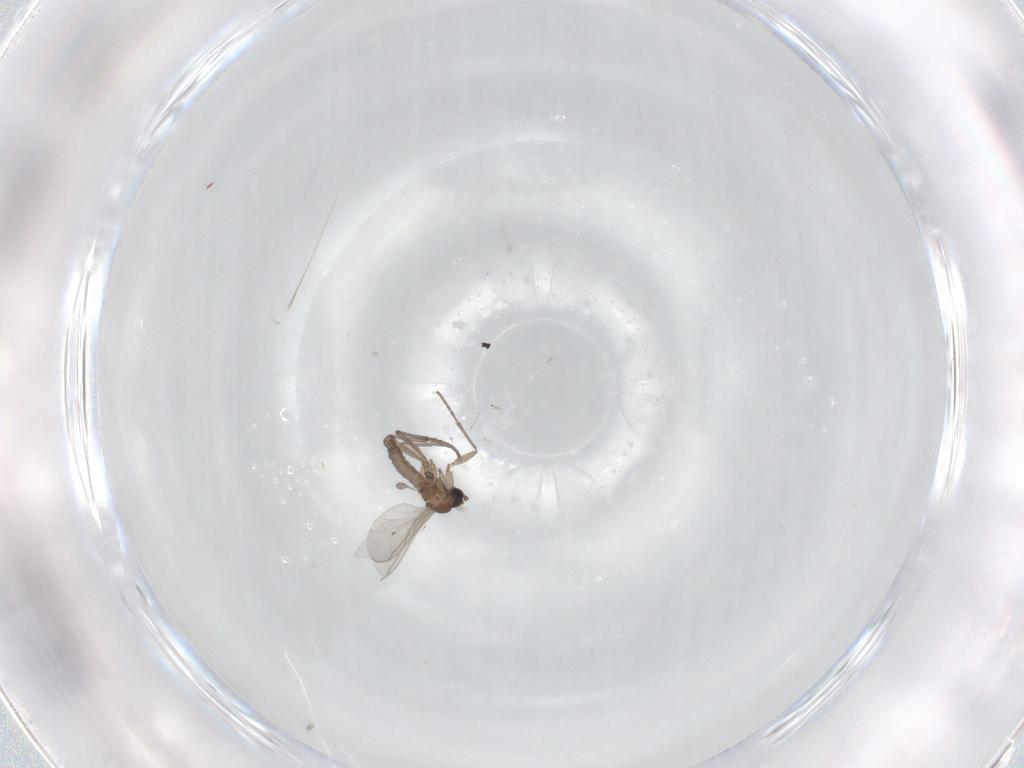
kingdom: Animalia
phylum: Arthropoda
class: Insecta
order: Diptera
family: Sciaridae
